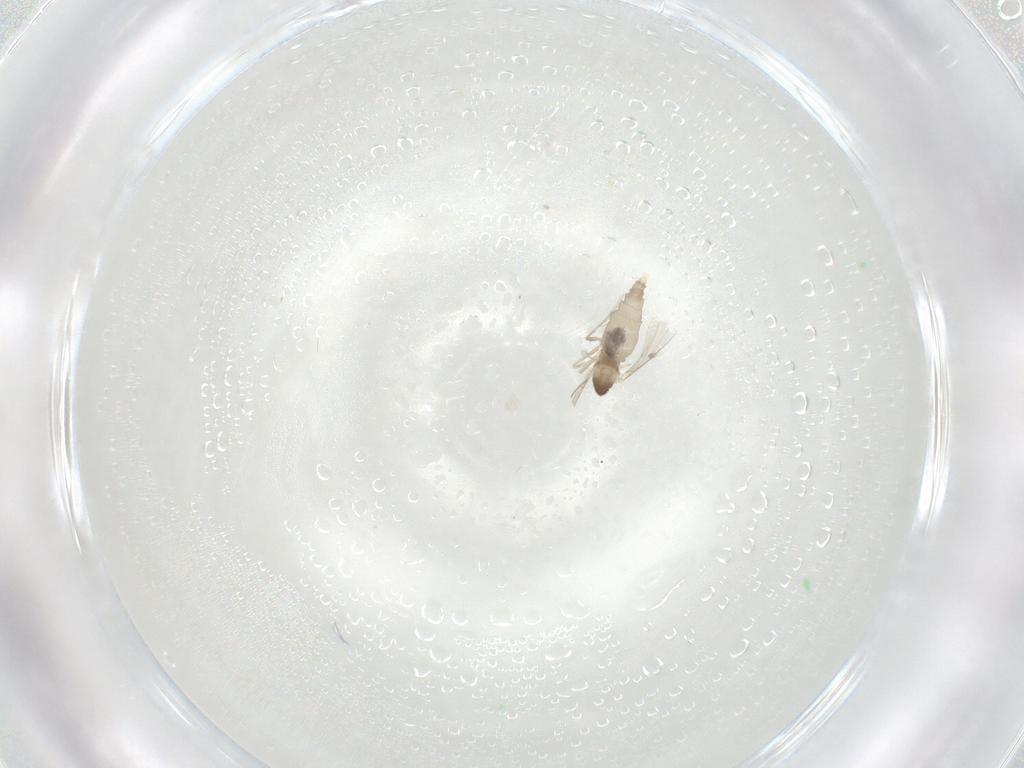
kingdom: Animalia
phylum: Arthropoda
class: Insecta
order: Diptera
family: Cecidomyiidae
